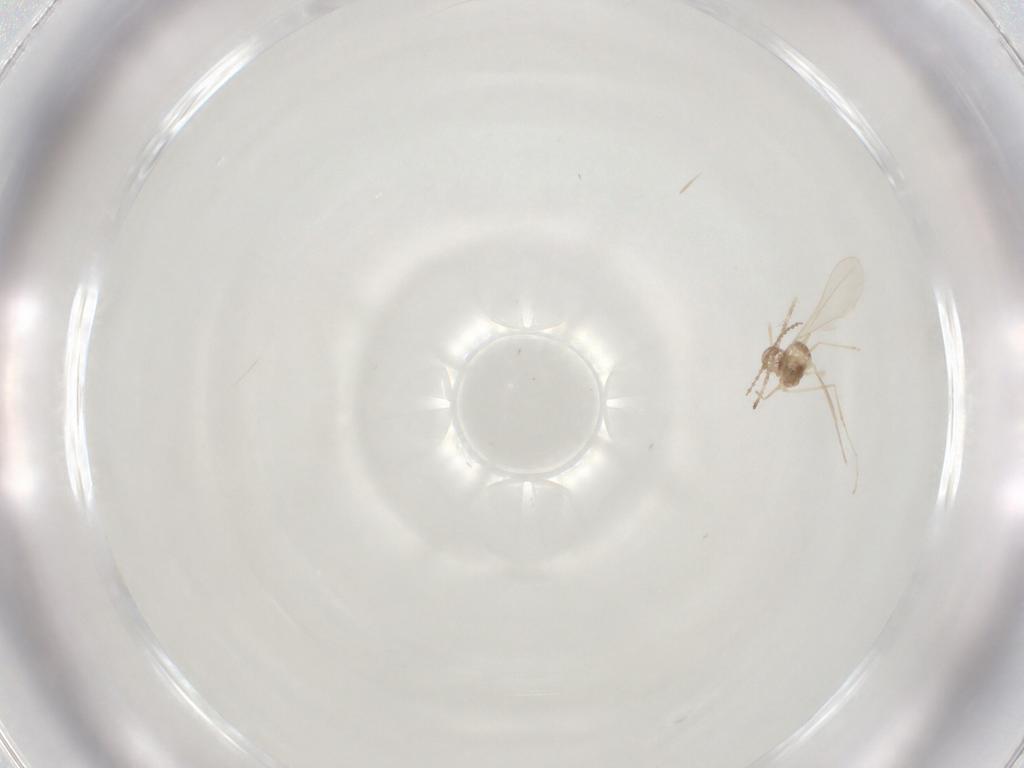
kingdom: Animalia
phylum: Arthropoda
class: Insecta
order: Diptera
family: Cecidomyiidae
